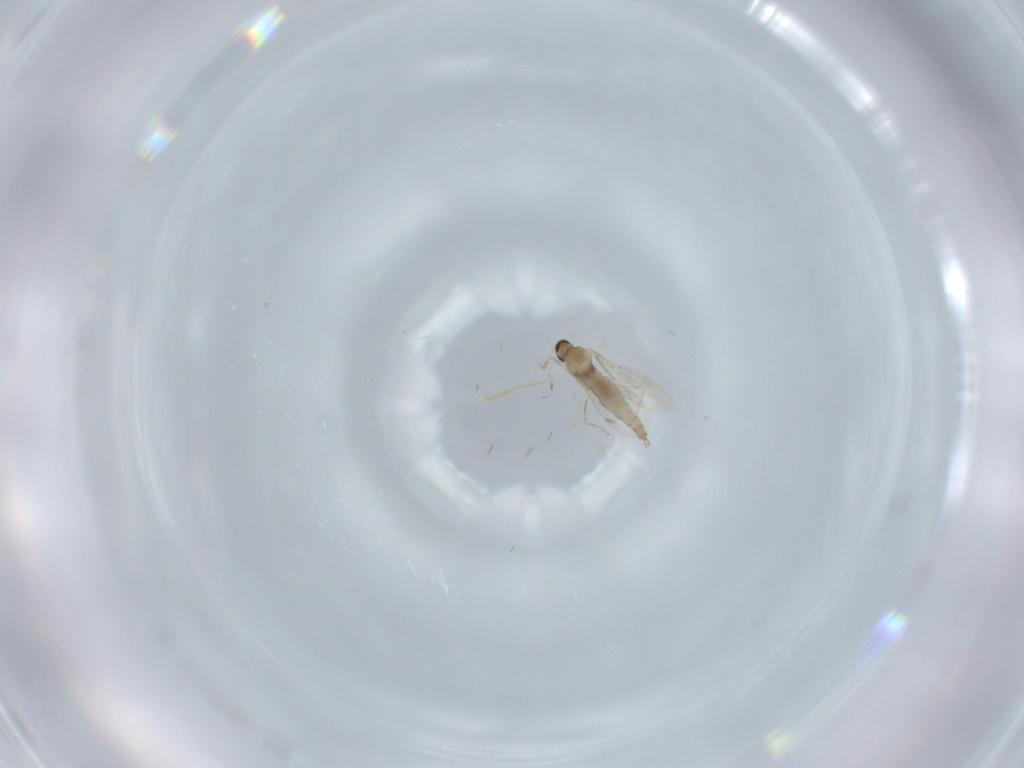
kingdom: Animalia
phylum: Arthropoda
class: Insecta
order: Diptera
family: Cecidomyiidae
